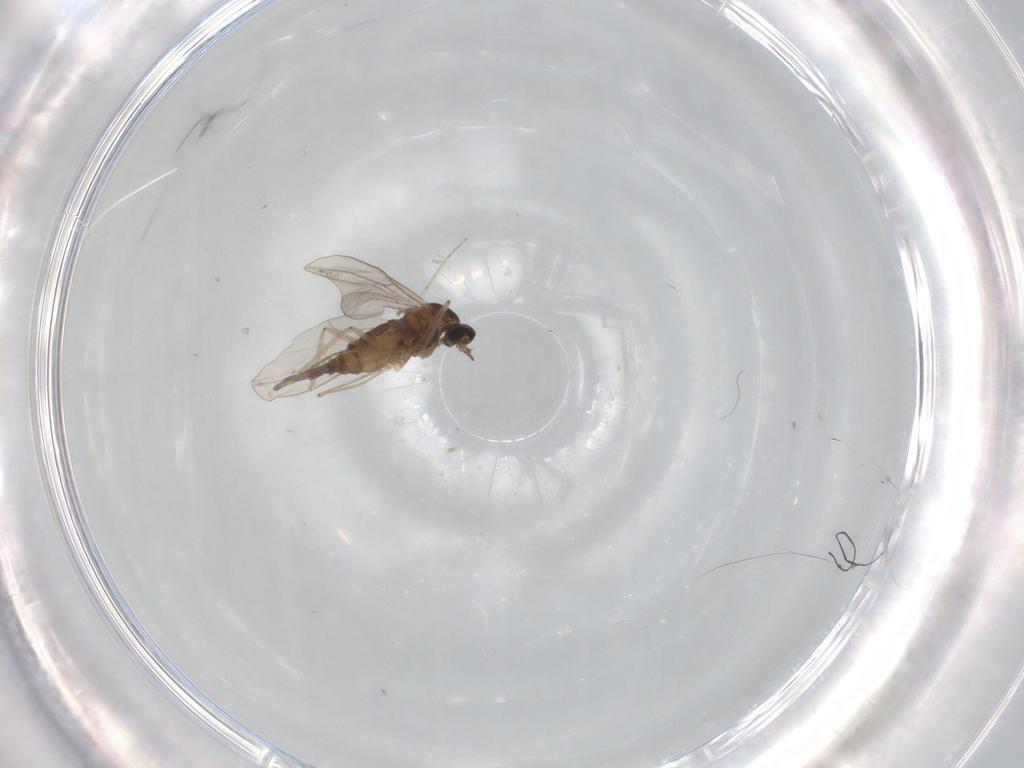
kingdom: Animalia
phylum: Arthropoda
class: Insecta
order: Diptera
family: Cecidomyiidae
